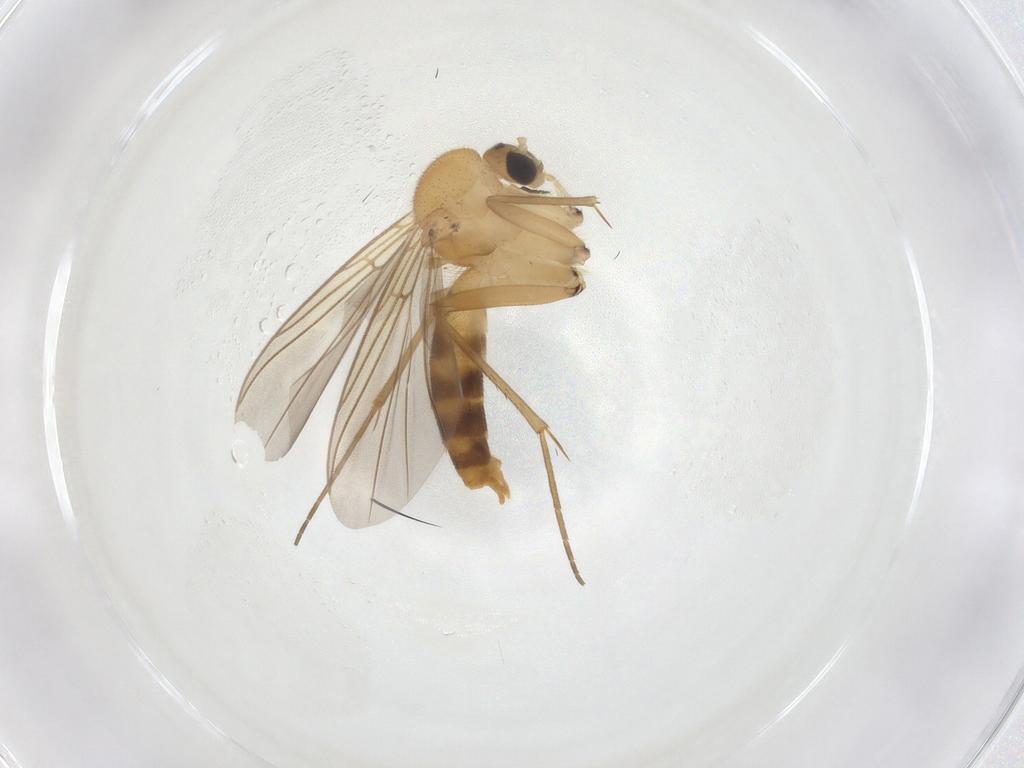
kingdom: Animalia
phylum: Arthropoda
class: Insecta
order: Diptera
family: Mycetophilidae
